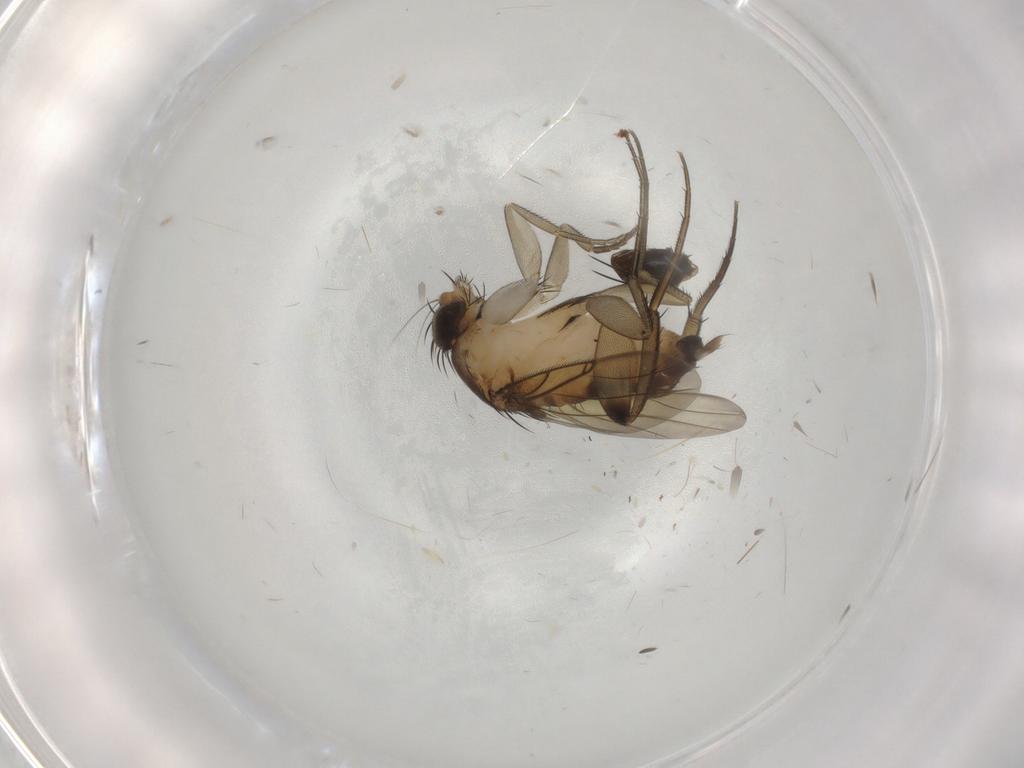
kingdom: Animalia
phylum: Arthropoda
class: Insecta
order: Diptera
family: Phoridae
